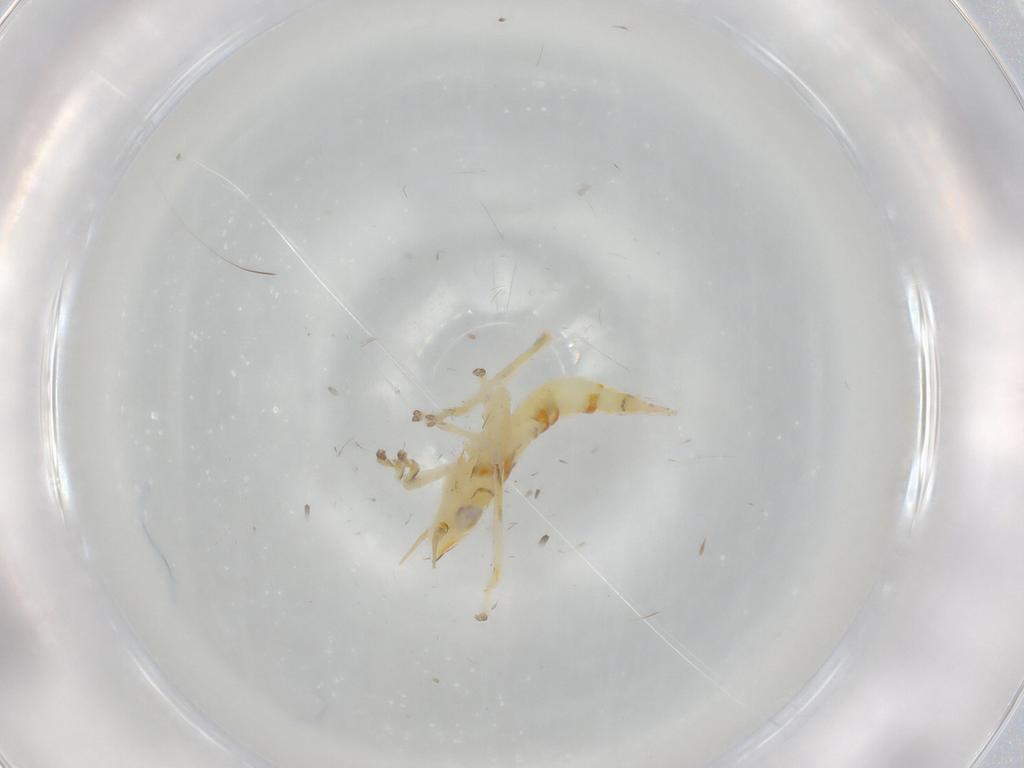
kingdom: Animalia
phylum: Arthropoda
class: Insecta
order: Hemiptera
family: Cicadellidae
